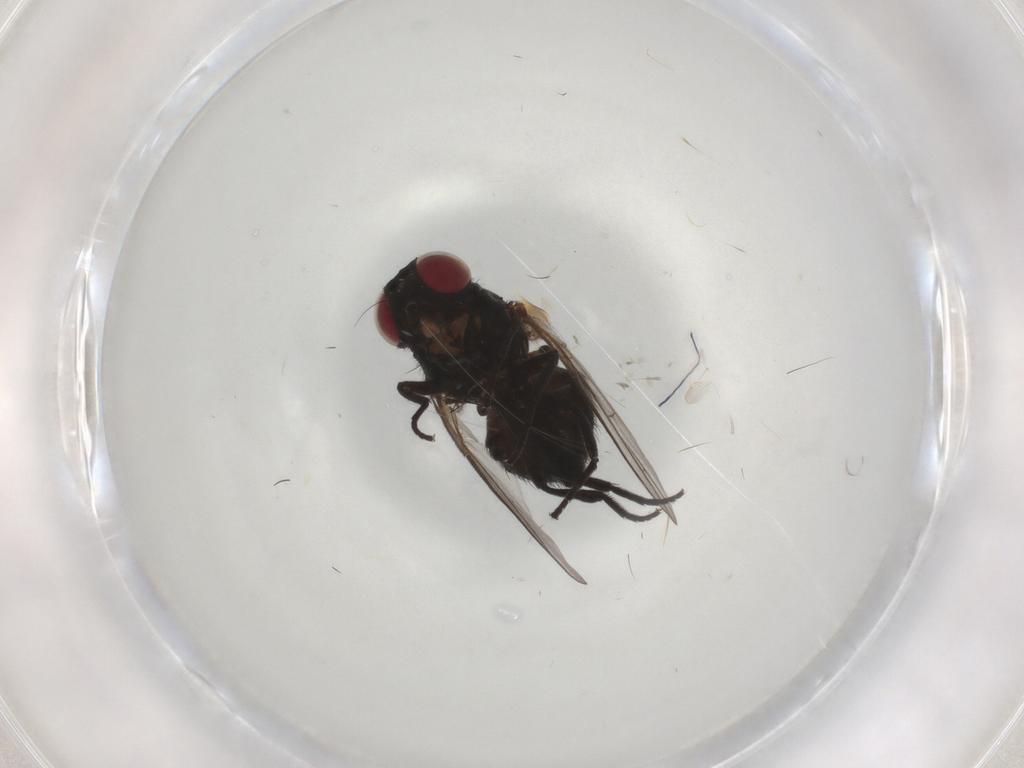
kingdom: Animalia
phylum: Arthropoda
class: Insecta
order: Diptera
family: Agromyzidae
